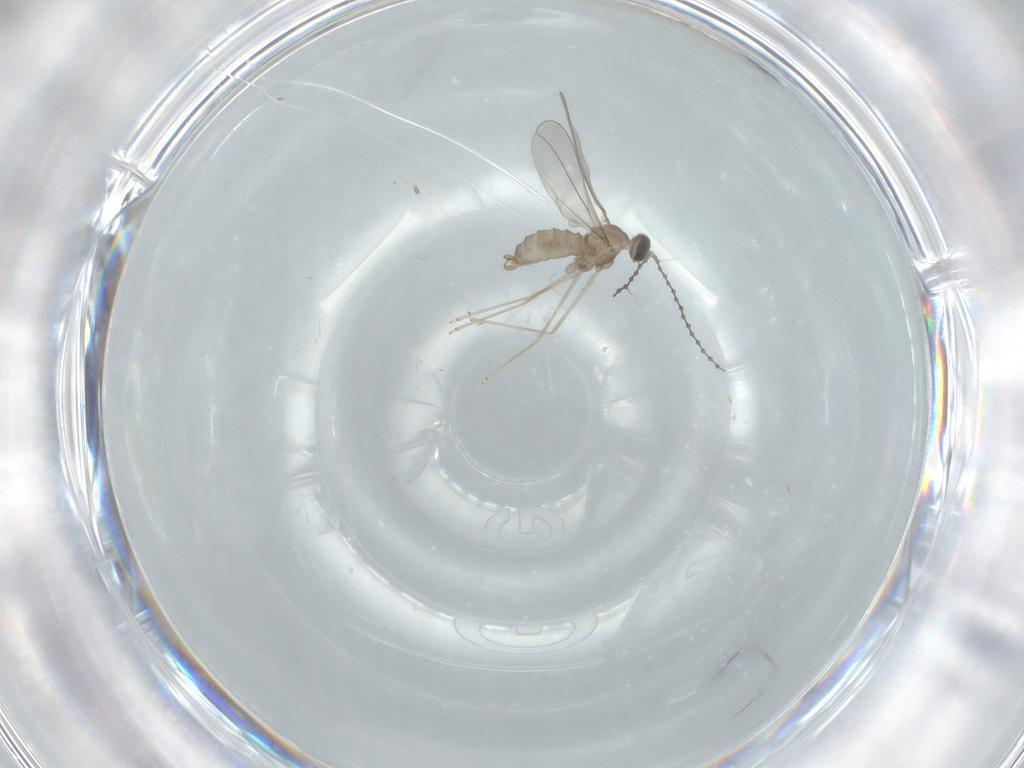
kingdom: Animalia
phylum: Arthropoda
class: Insecta
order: Diptera
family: Cecidomyiidae
